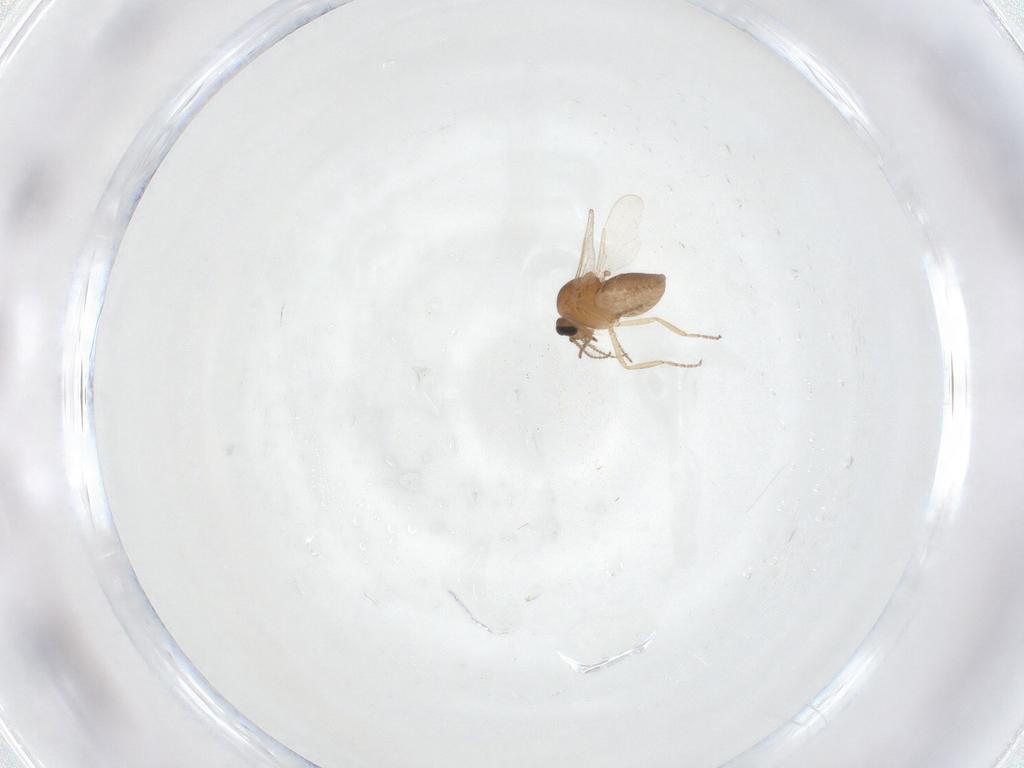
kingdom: Animalia
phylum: Arthropoda
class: Insecta
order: Diptera
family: Ceratopogonidae
